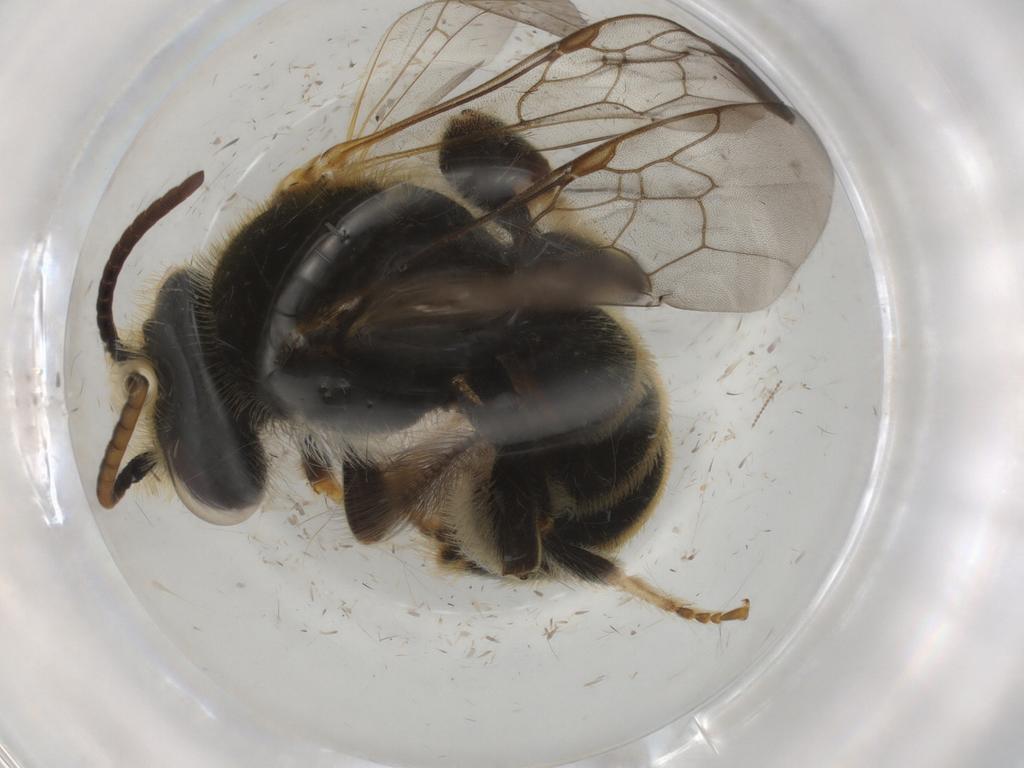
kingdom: Animalia
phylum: Arthropoda
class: Insecta
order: Hymenoptera
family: Halictidae
